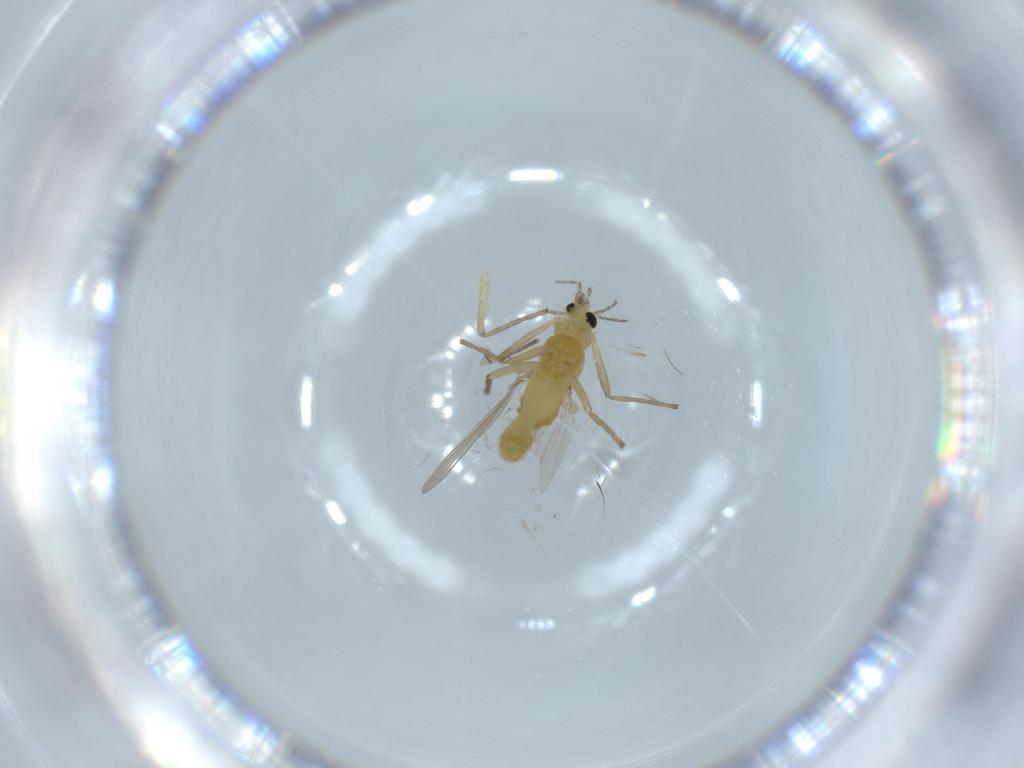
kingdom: Animalia
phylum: Arthropoda
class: Insecta
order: Diptera
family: Chironomidae
